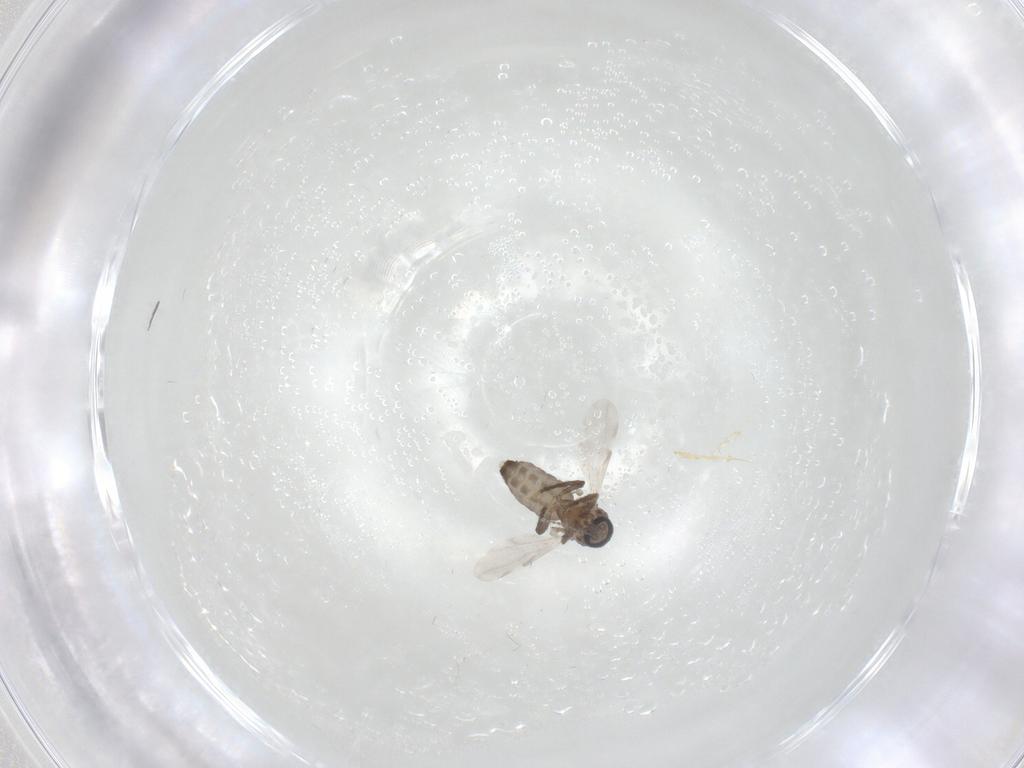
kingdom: Animalia
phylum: Arthropoda
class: Insecta
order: Diptera
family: Ceratopogonidae
